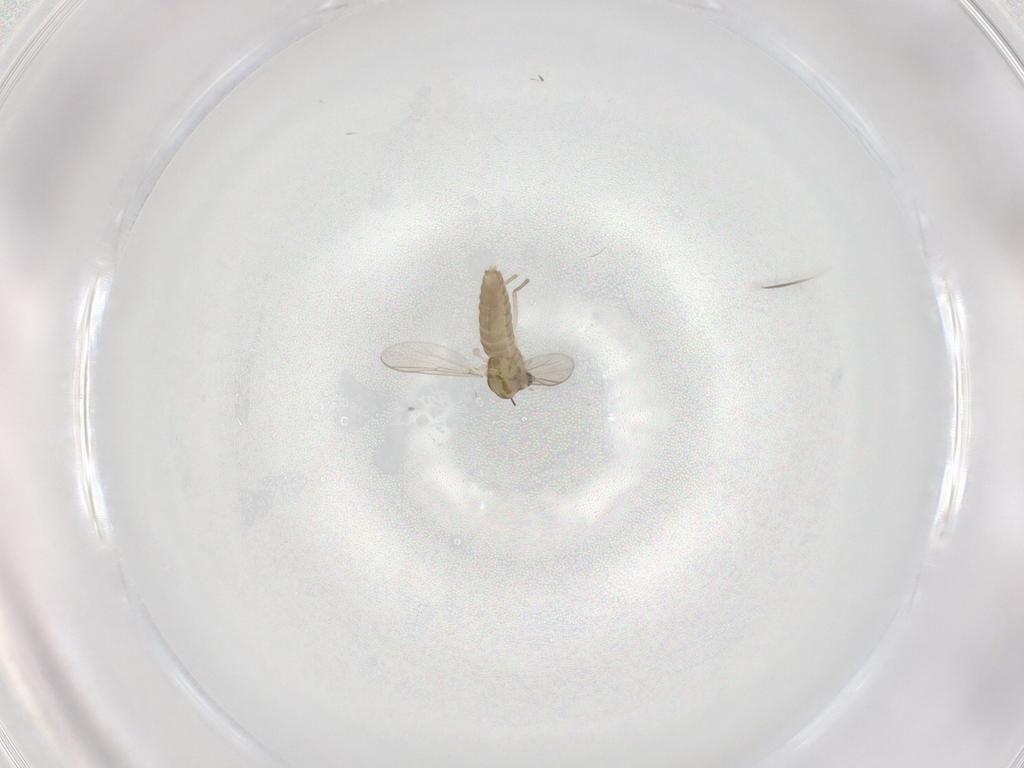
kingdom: Animalia
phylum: Arthropoda
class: Insecta
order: Diptera
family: Chironomidae
